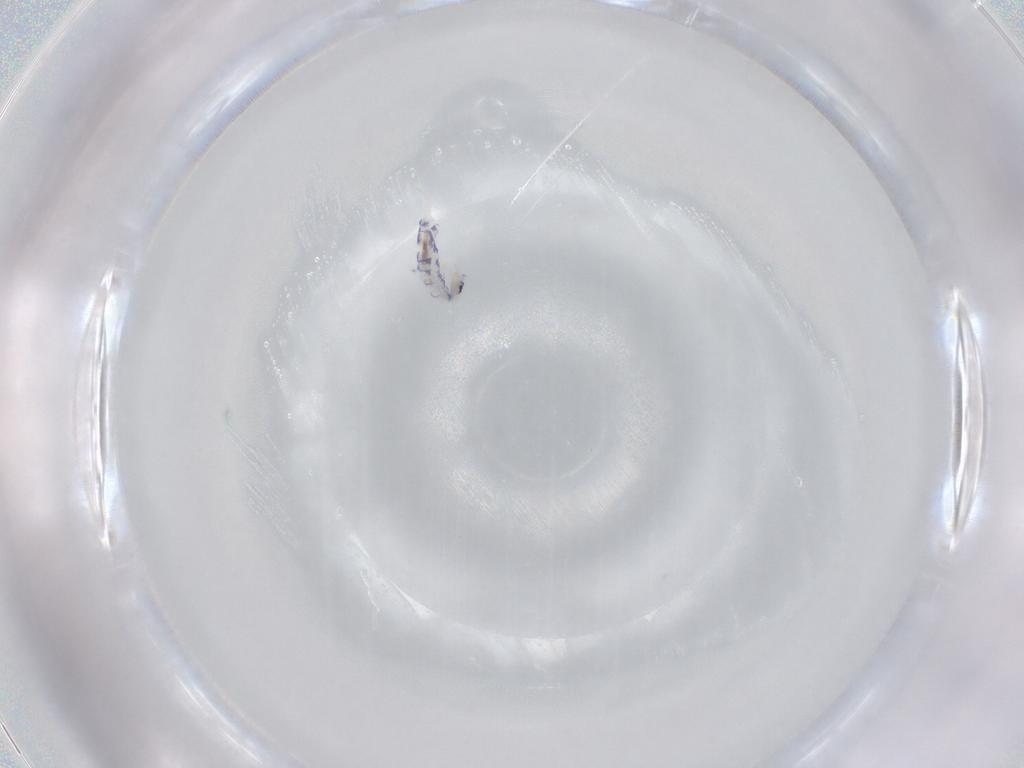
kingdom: Animalia
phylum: Arthropoda
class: Collembola
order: Entomobryomorpha
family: Entomobryidae
